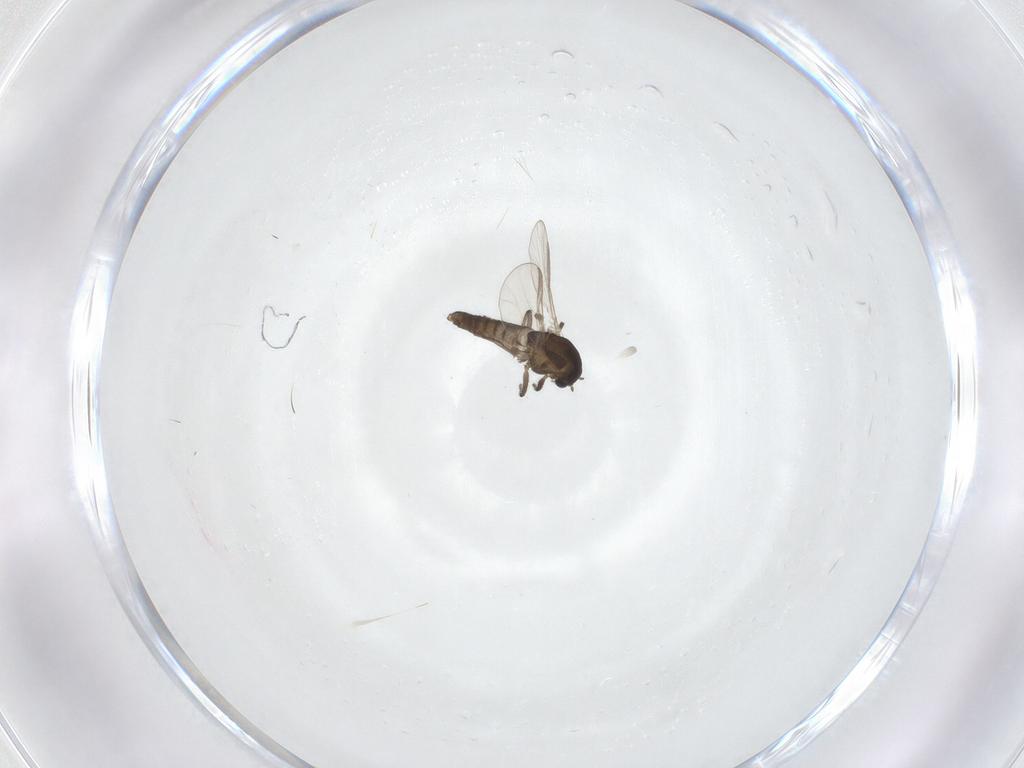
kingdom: Animalia
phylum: Arthropoda
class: Insecta
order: Diptera
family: Chironomidae
